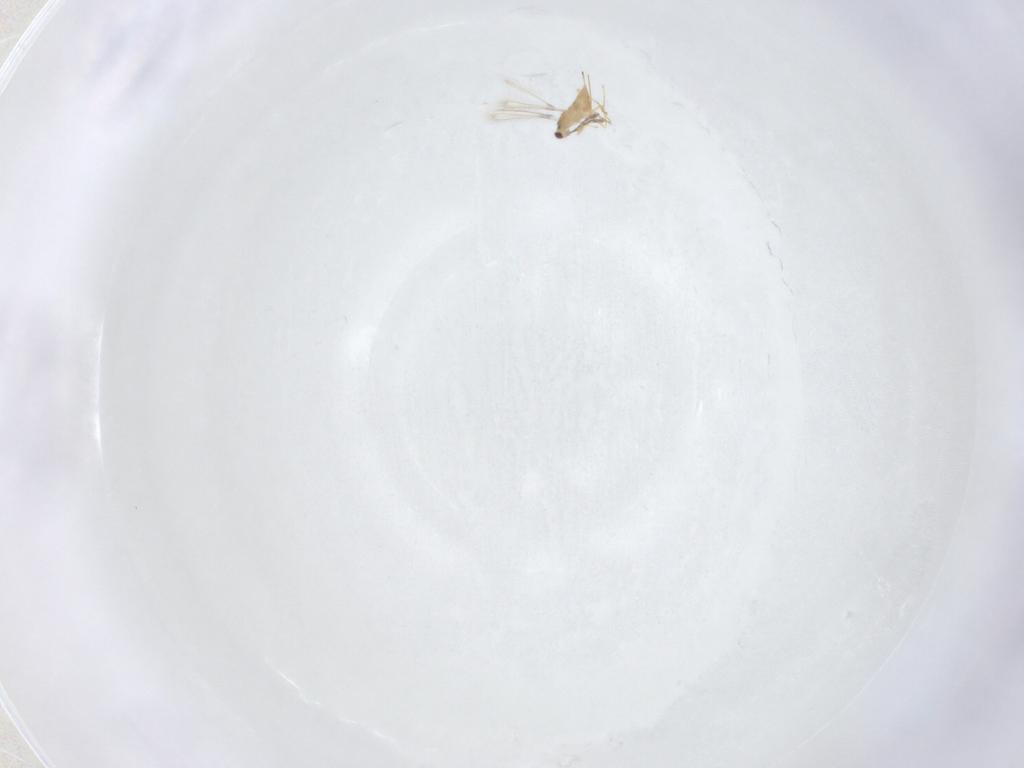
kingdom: Animalia
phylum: Arthropoda
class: Insecta
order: Hymenoptera
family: Mymaridae
